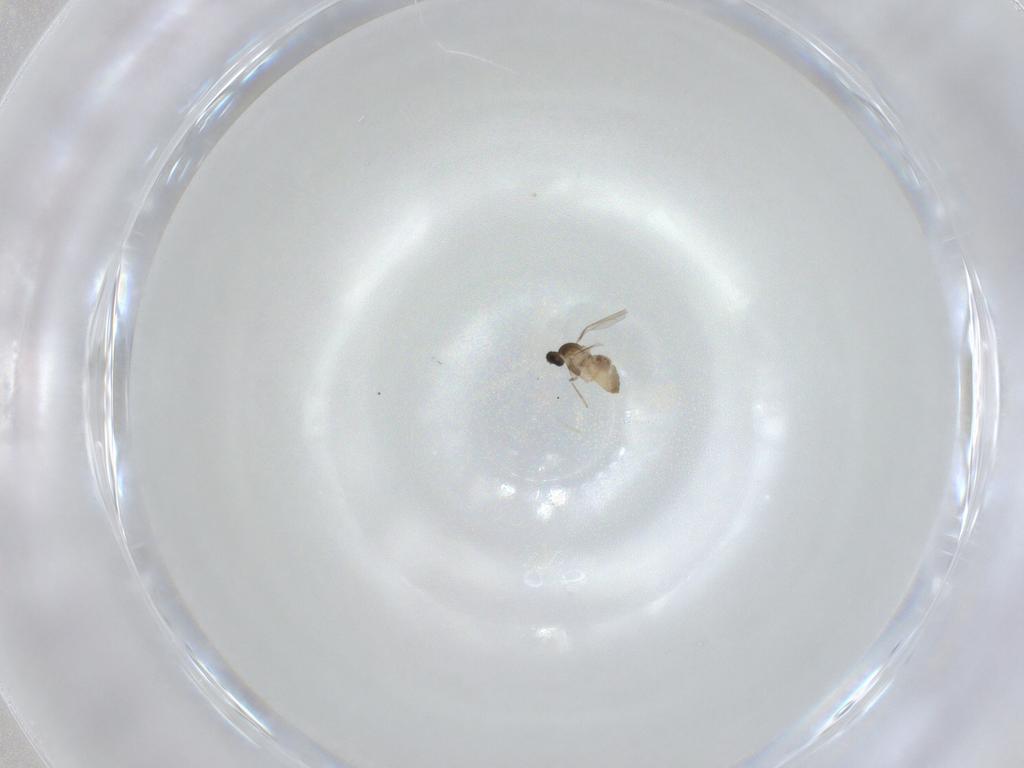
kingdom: Animalia
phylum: Arthropoda
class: Insecta
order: Diptera
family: Cecidomyiidae
